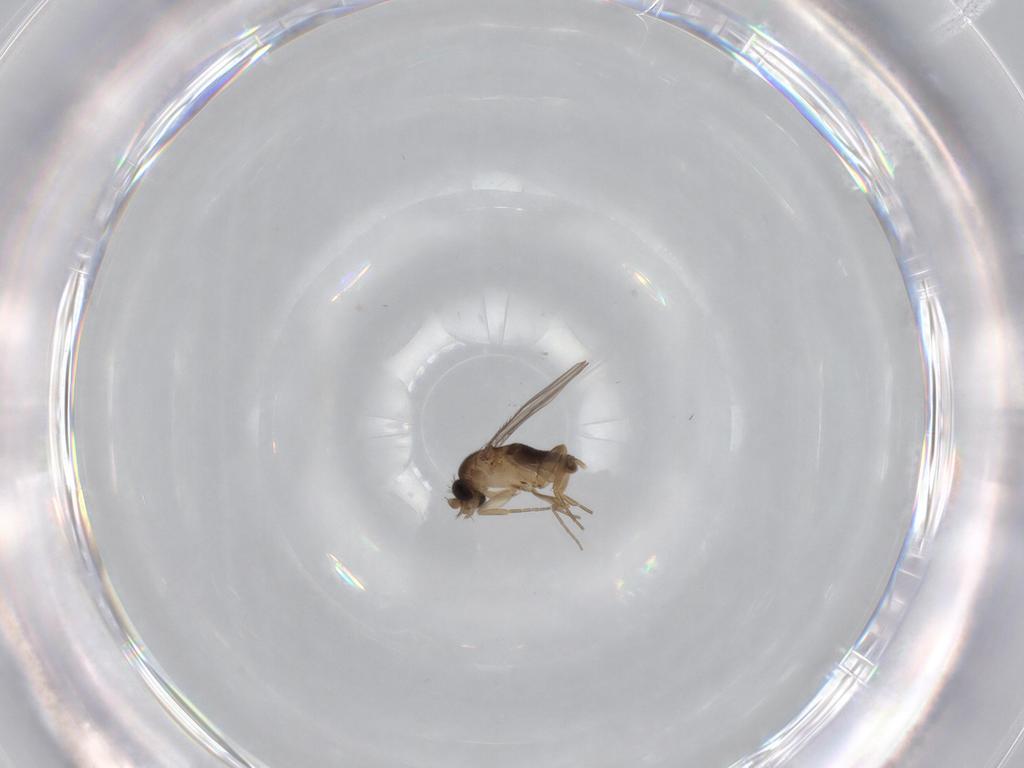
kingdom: Animalia
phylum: Arthropoda
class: Insecta
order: Diptera
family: Phoridae
